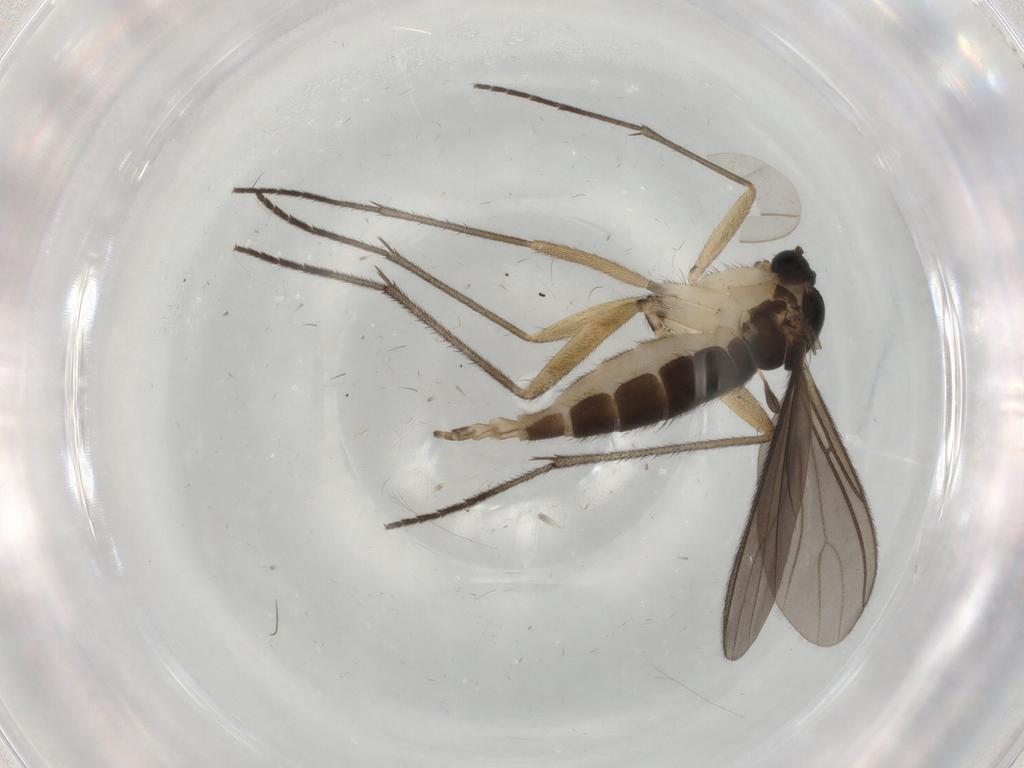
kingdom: Animalia
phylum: Arthropoda
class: Insecta
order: Diptera
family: Sciaridae
